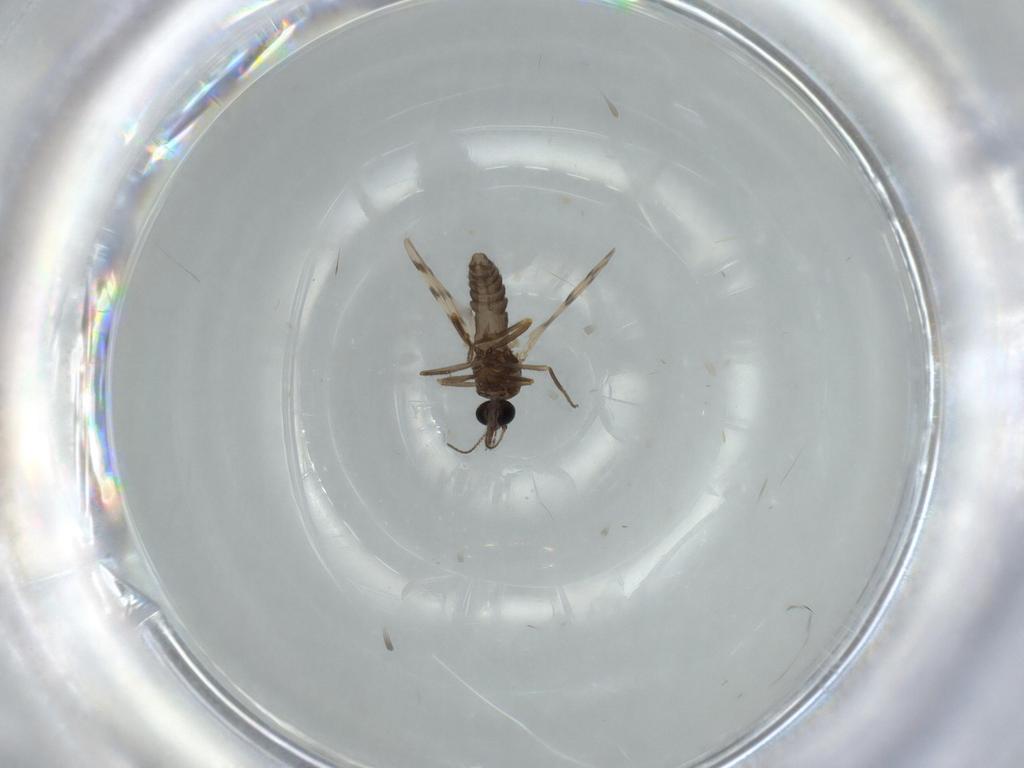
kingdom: Animalia
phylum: Arthropoda
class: Insecta
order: Diptera
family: Ceratopogonidae
